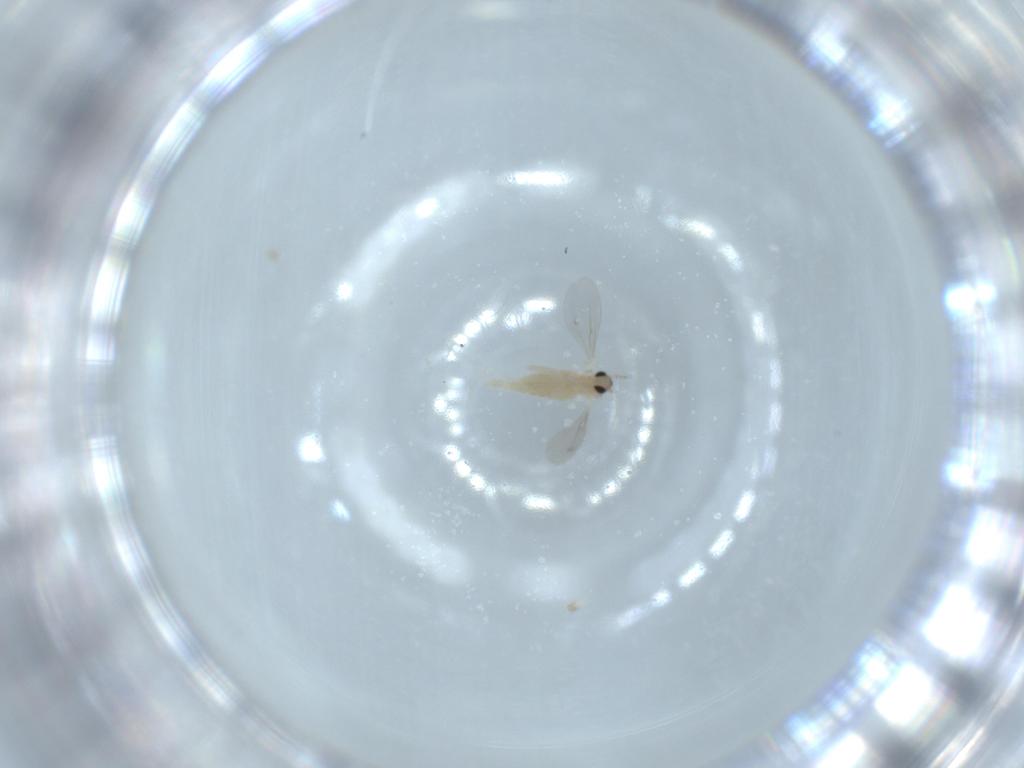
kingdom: Animalia
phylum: Arthropoda
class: Insecta
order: Diptera
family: Cecidomyiidae
